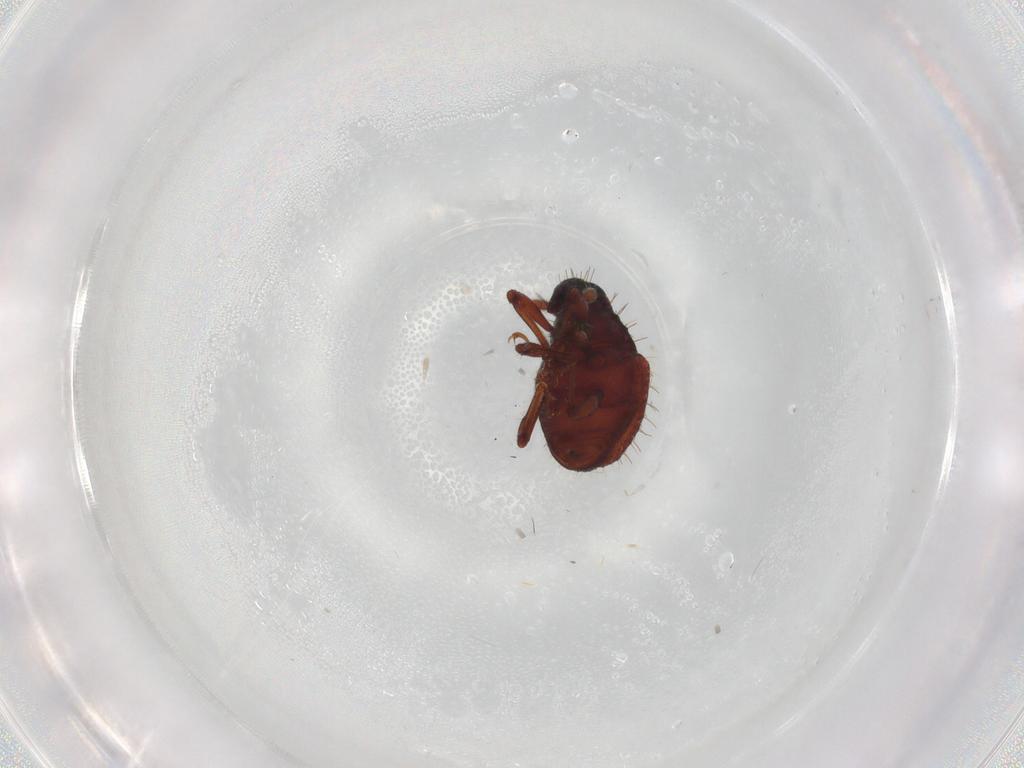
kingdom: Animalia
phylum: Arthropoda
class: Insecta
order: Coleoptera
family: Curculionidae
